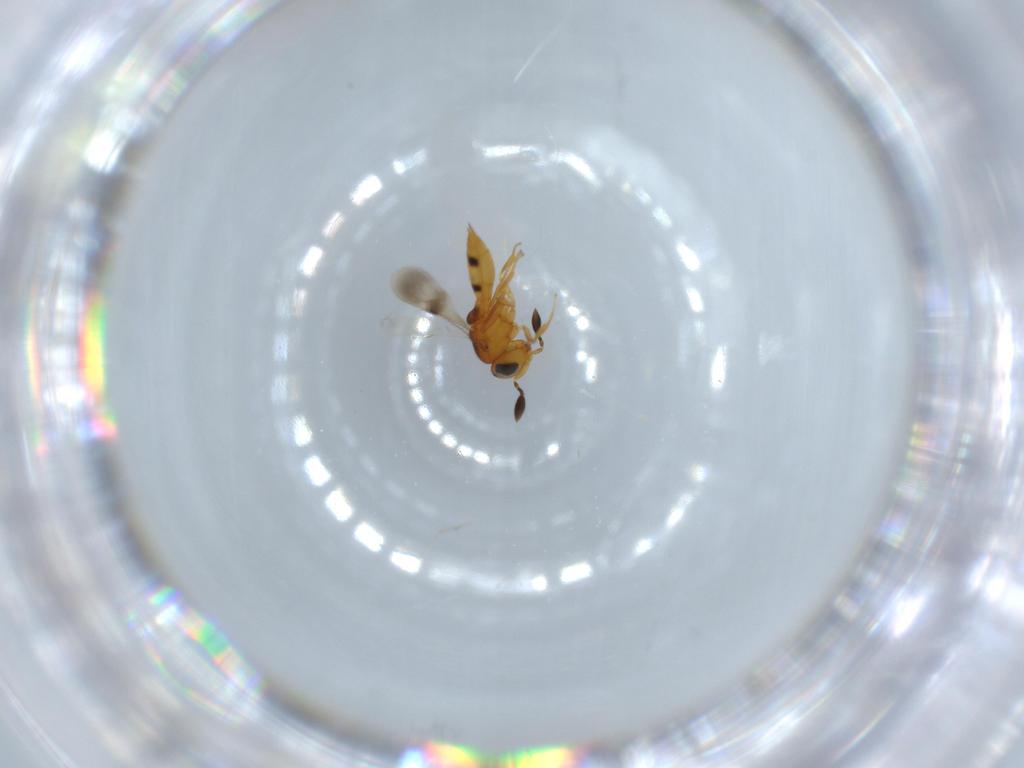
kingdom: Animalia
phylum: Arthropoda
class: Insecta
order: Hymenoptera
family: Scelionidae
